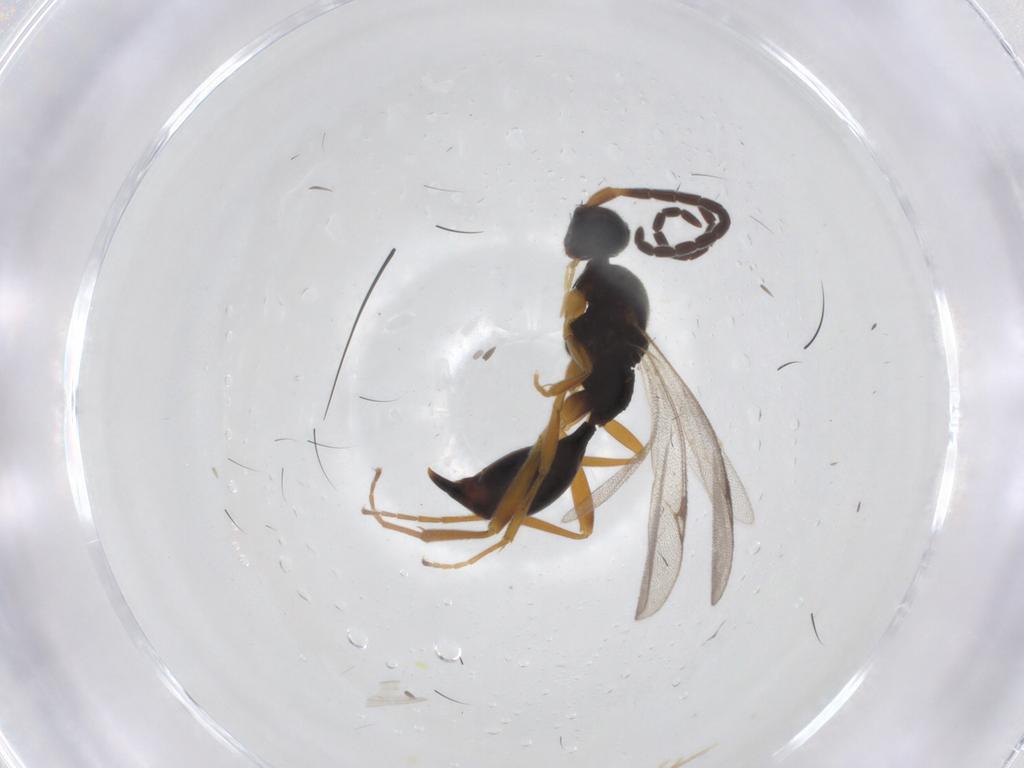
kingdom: Animalia
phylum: Arthropoda
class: Insecta
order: Hymenoptera
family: Proctotrupidae
